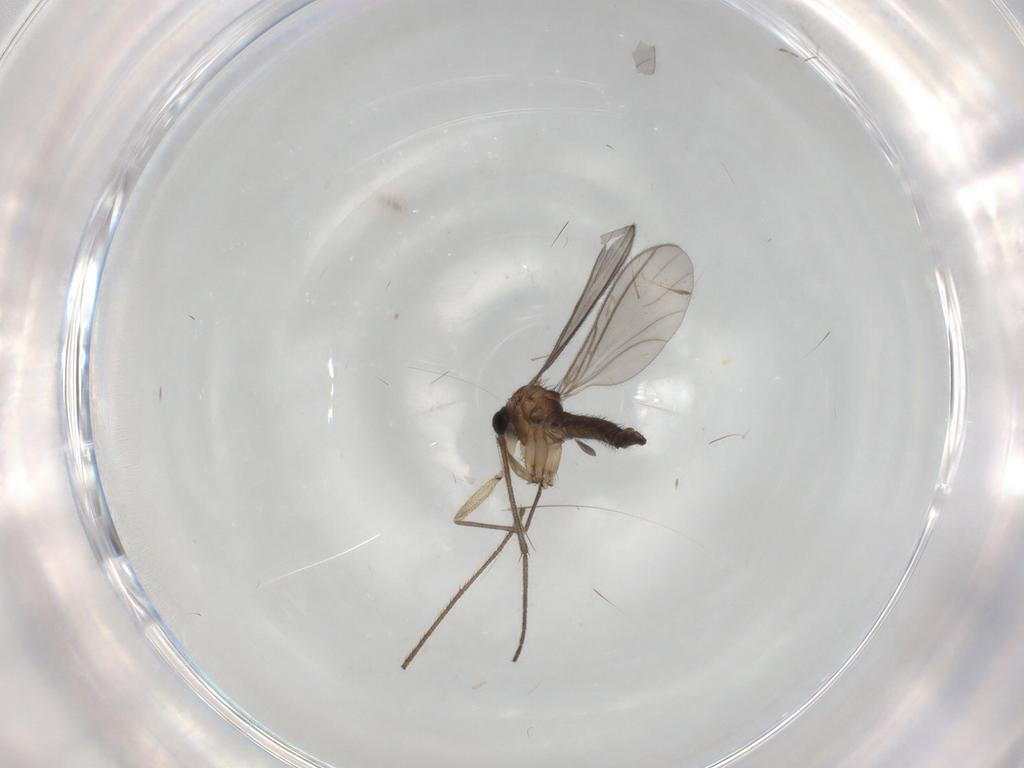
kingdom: Animalia
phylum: Arthropoda
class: Insecta
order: Diptera
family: Sciaridae
